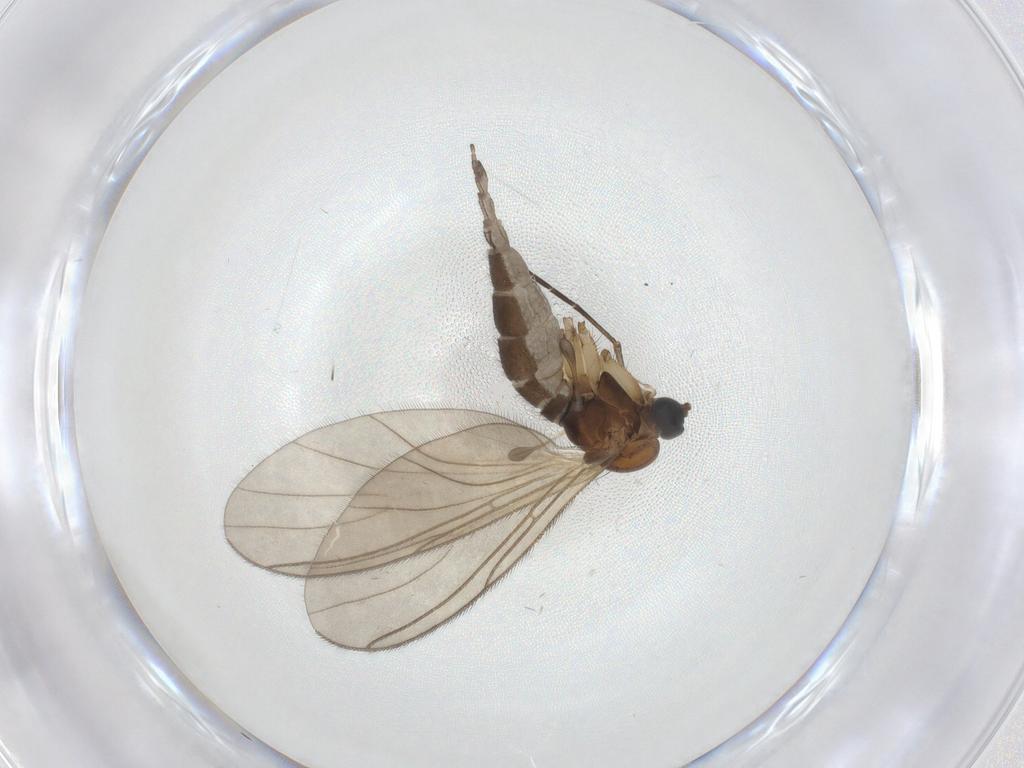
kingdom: Animalia
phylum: Arthropoda
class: Insecta
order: Diptera
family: Sciaridae
